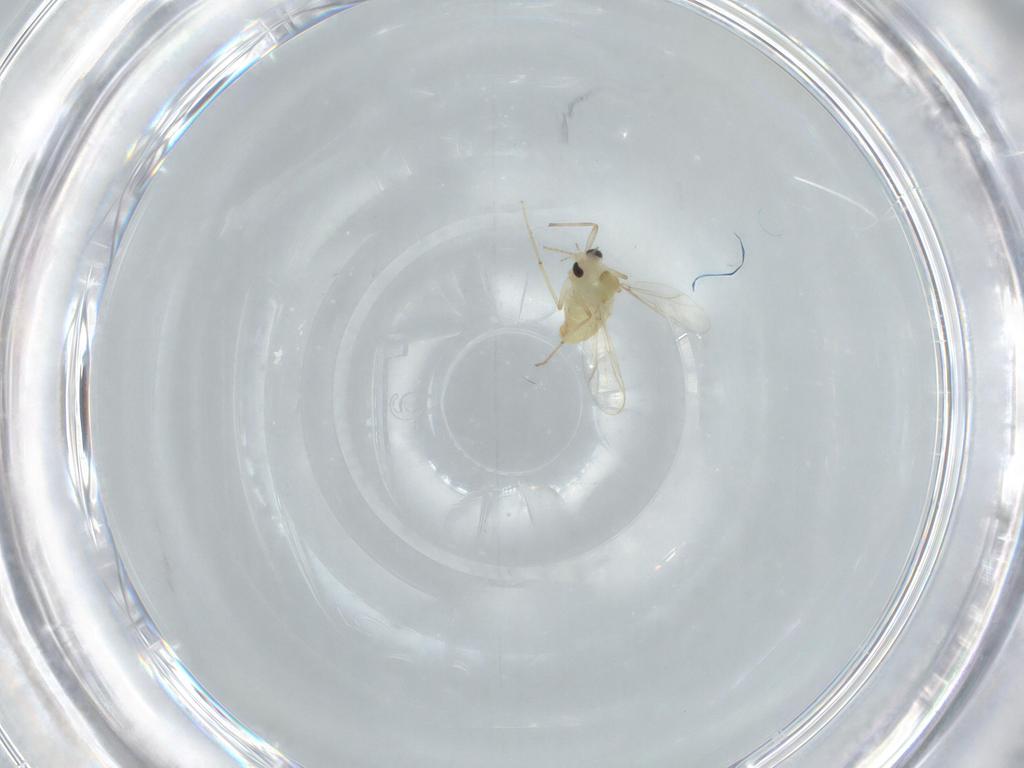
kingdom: Animalia
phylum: Arthropoda
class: Insecta
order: Diptera
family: Chironomidae
